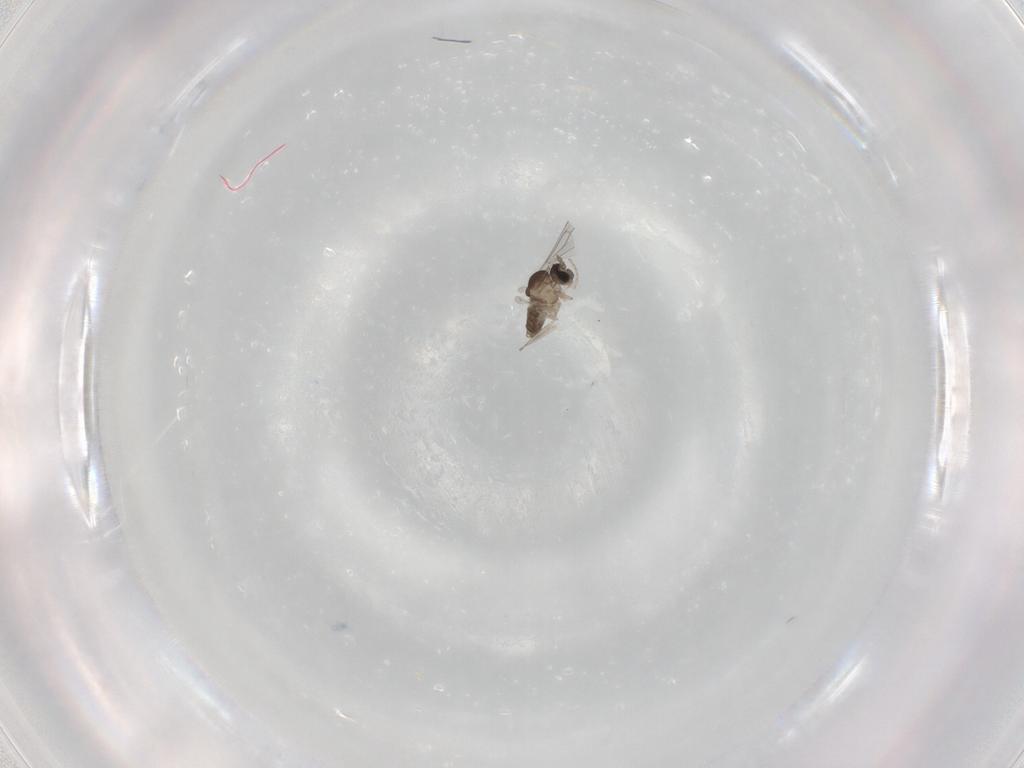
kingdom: Animalia
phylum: Arthropoda
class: Insecta
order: Diptera
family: Cecidomyiidae
